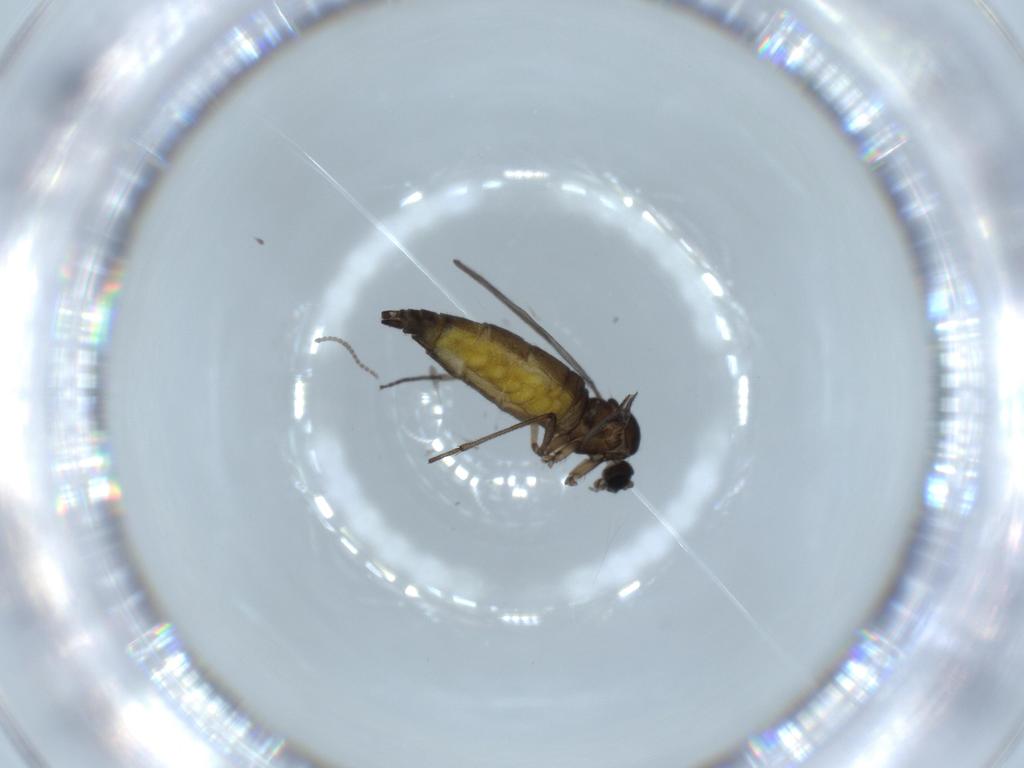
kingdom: Animalia
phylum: Arthropoda
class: Insecta
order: Diptera
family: Sciaridae
